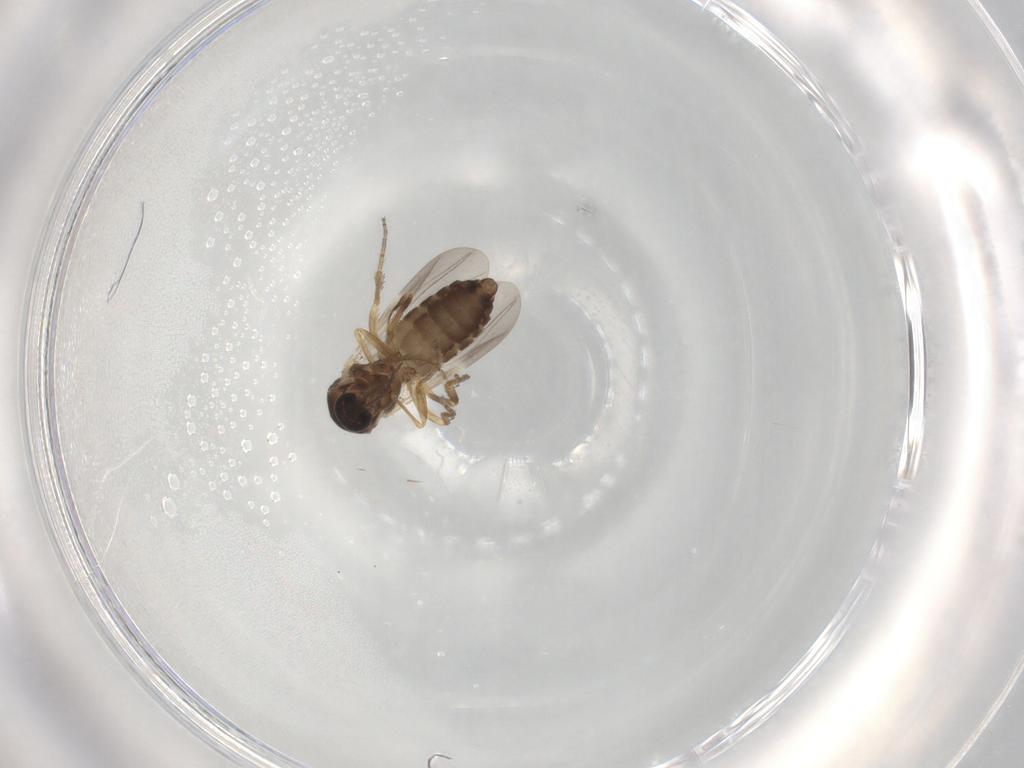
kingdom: Animalia
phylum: Arthropoda
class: Insecta
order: Diptera
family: Ceratopogonidae
